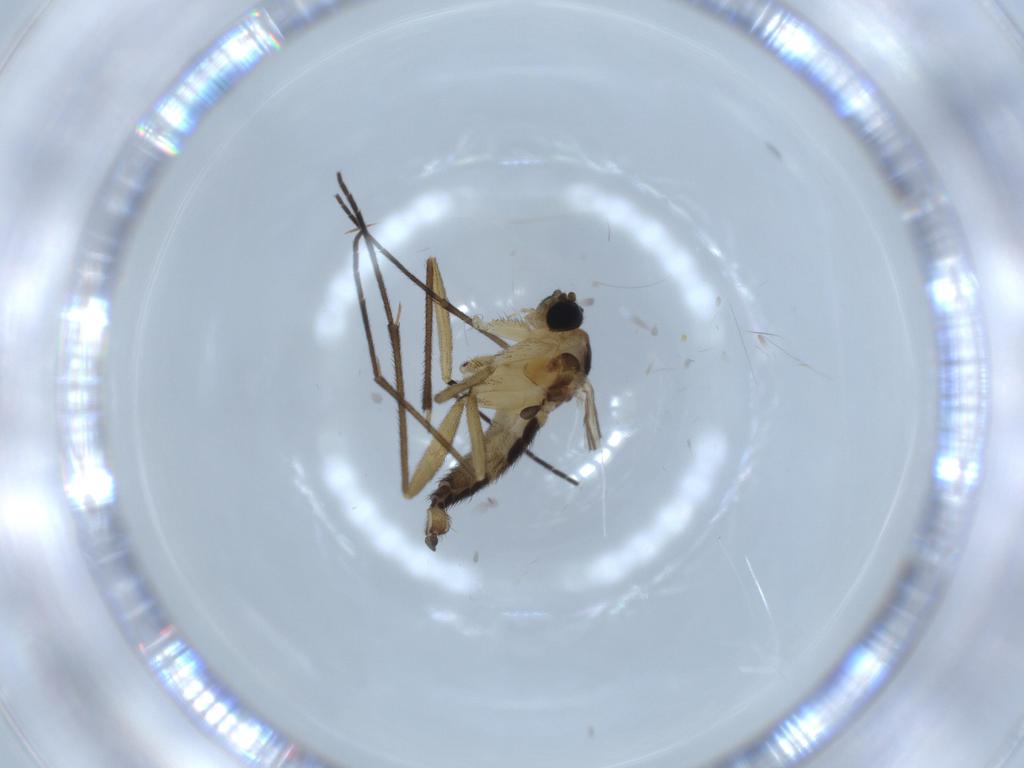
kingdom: Animalia
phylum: Arthropoda
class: Insecta
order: Diptera
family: Sciaridae
